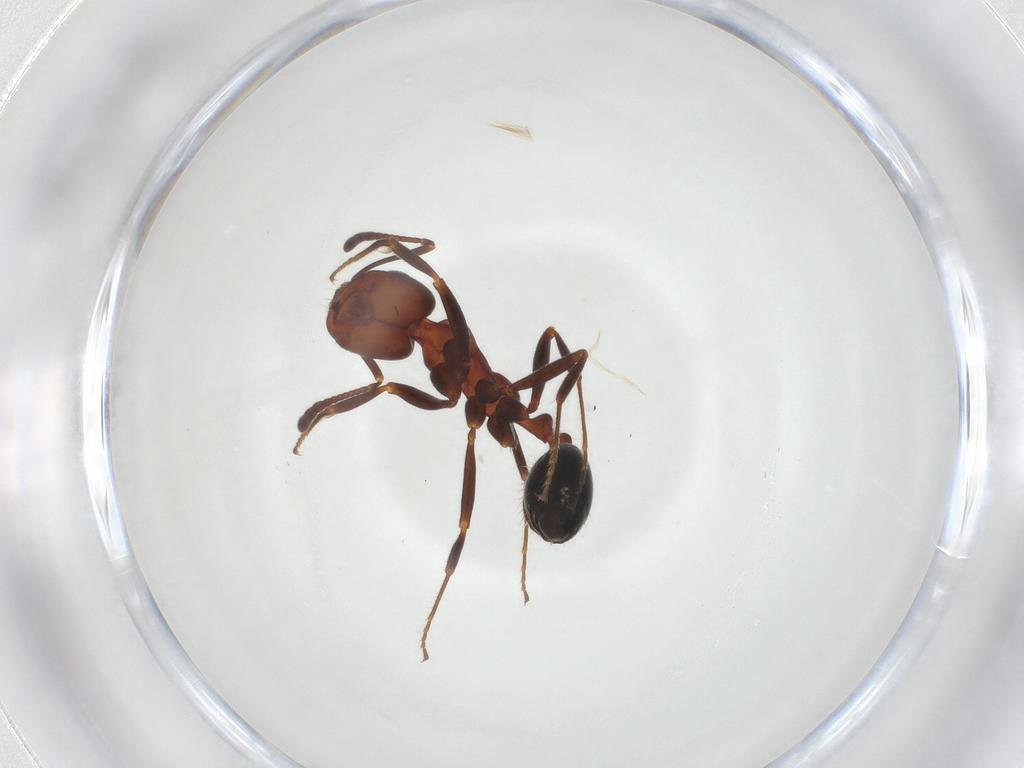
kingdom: Animalia
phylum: Arthropoda
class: Insecta
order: Hymenoptera
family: Formicidae
